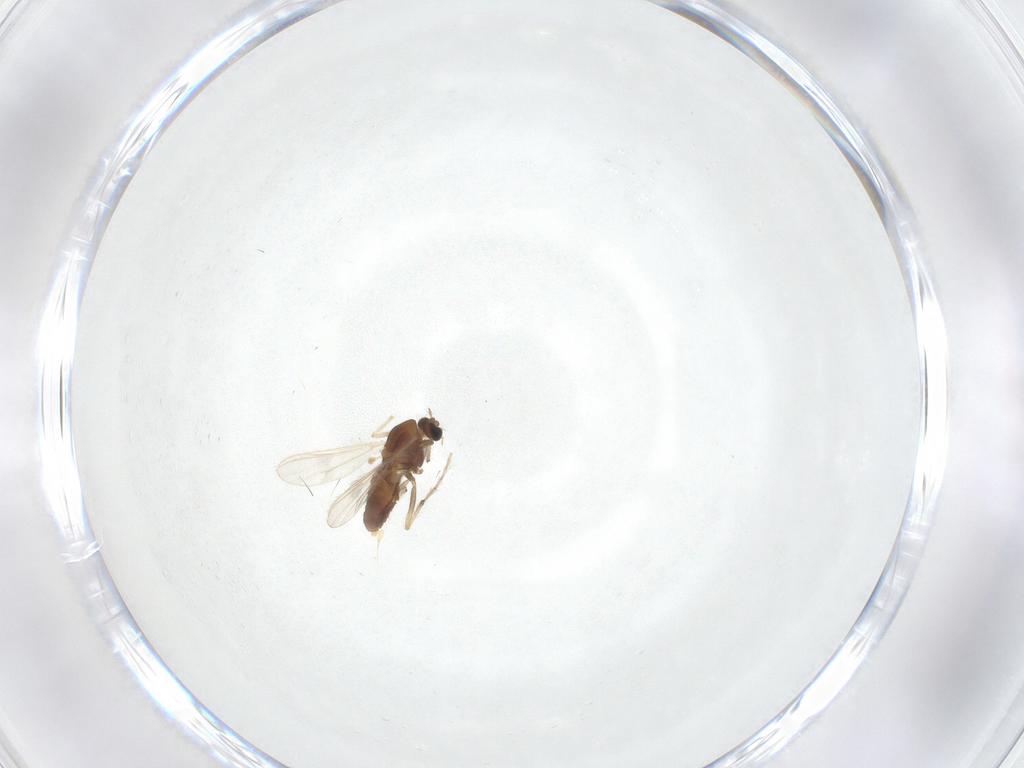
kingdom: Animalia
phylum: Arthropoda
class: Insecta
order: Diptera
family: Chironomidae
